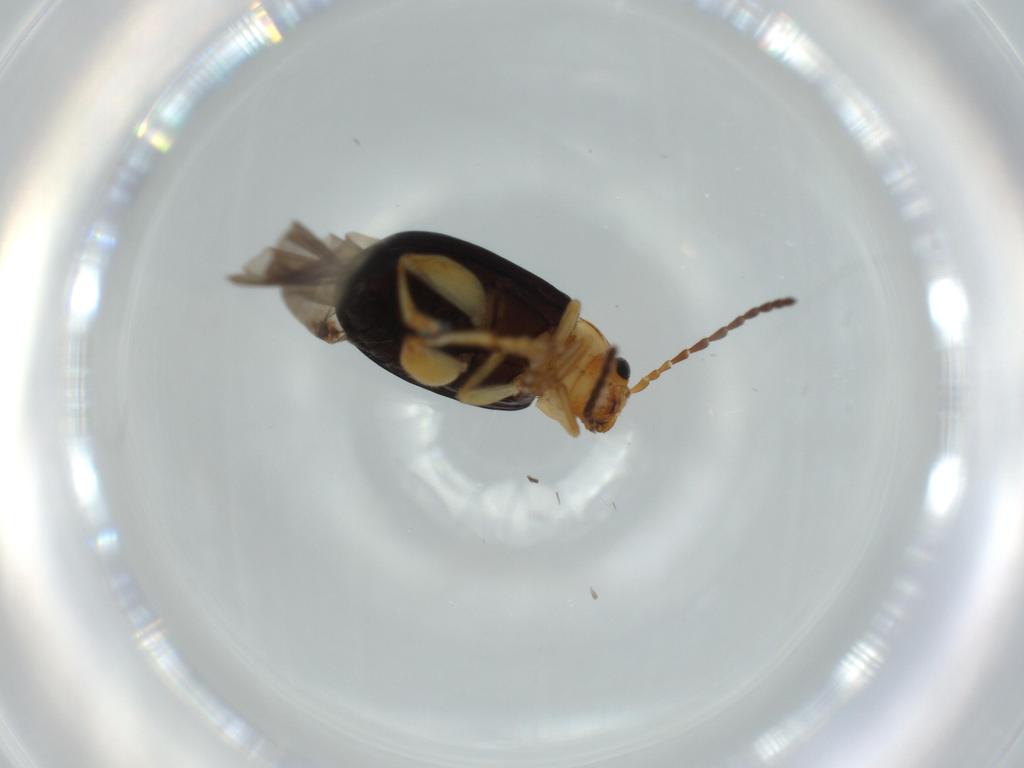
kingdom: Animalia
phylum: Arthropoda
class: Insecta
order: Coleoptera
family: Chrysomelidae
